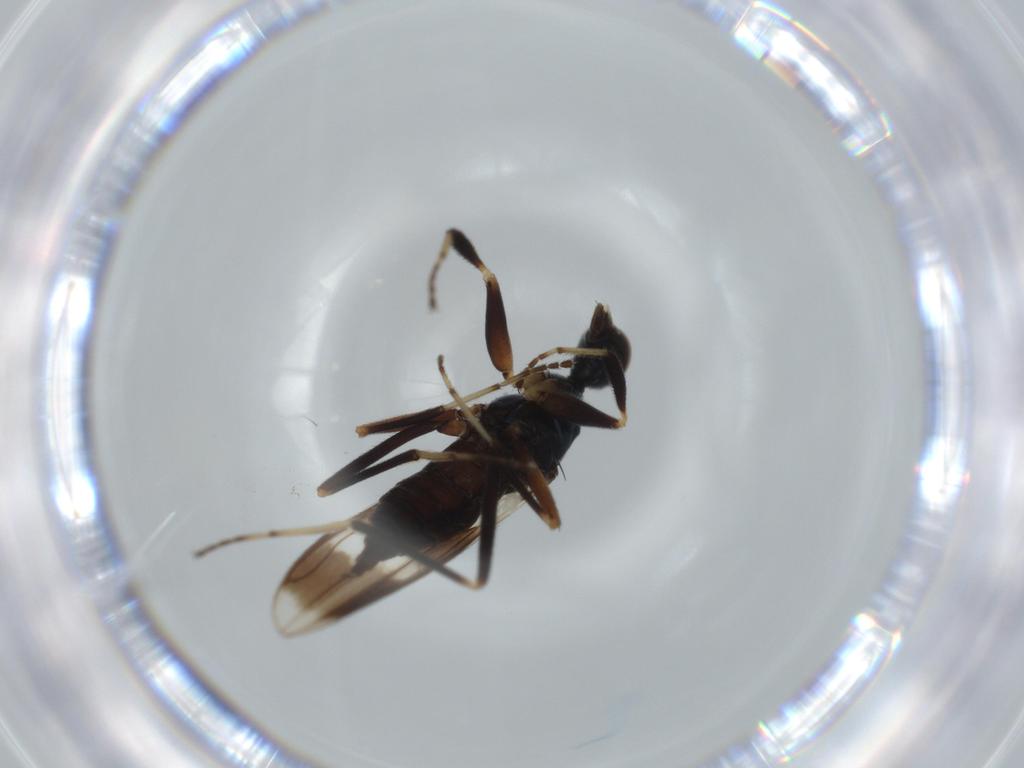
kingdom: Animalia
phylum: Arthropoda
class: Insecta
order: Diptera
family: Hybotidae
